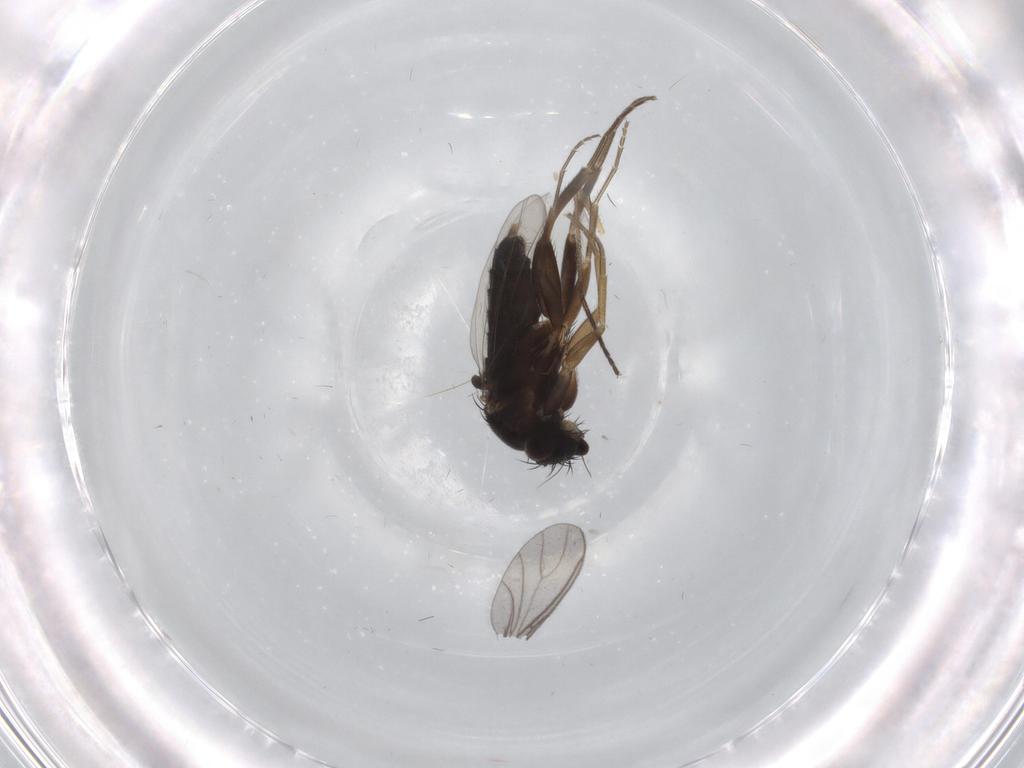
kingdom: Animalia
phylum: Arthropoda
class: Insecta
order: Diptera
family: Phoridae
